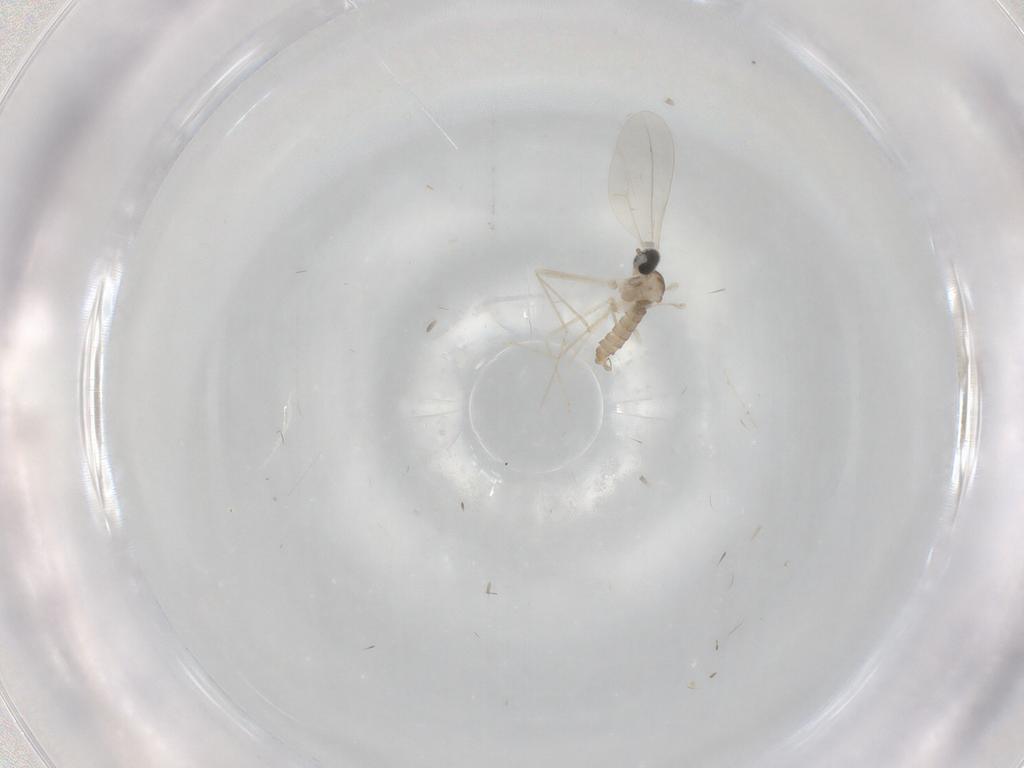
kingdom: Animalia
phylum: Arthropoda
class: Insecta
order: Diptera
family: Cecidomyiidae
